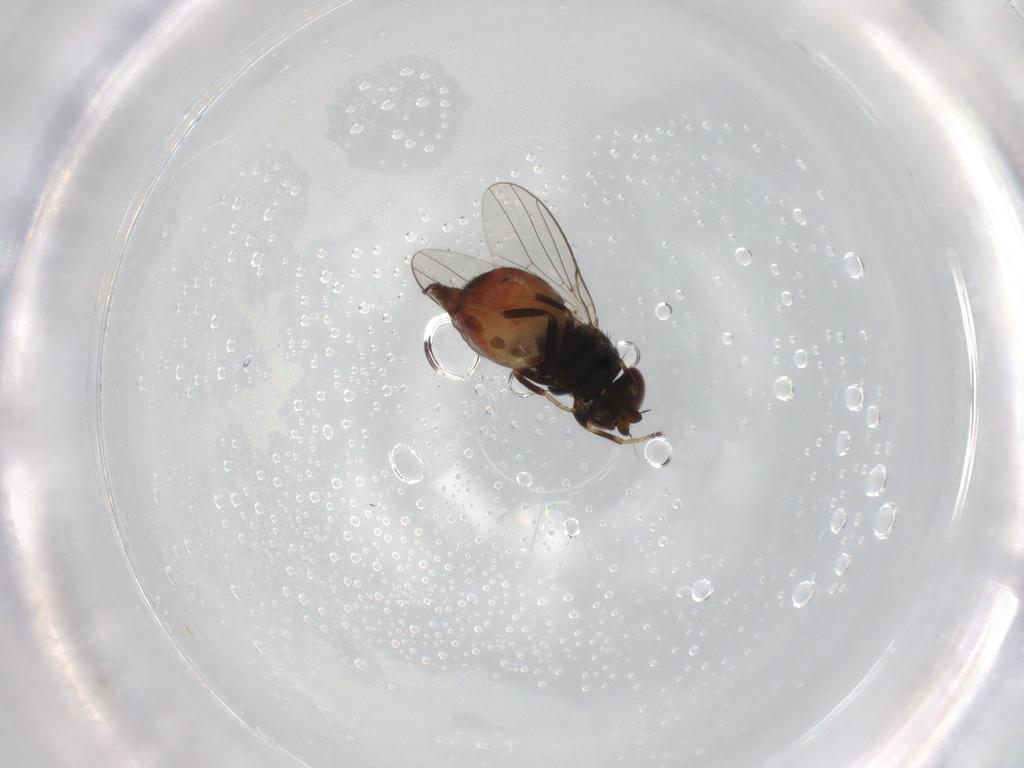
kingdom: Animalia
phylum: Arthropoda
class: Insecta
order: Diptera
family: Chloropidae
